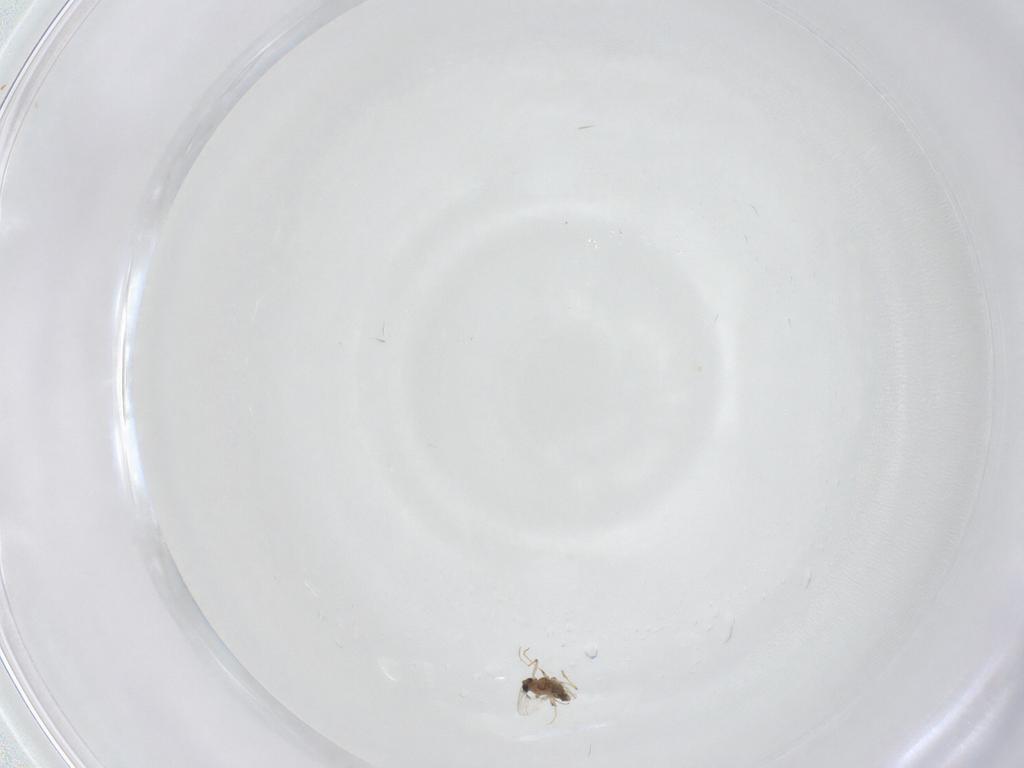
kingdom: Animalia
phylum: Arthropoda
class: Insecta
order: Diptera
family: Chironomidae
